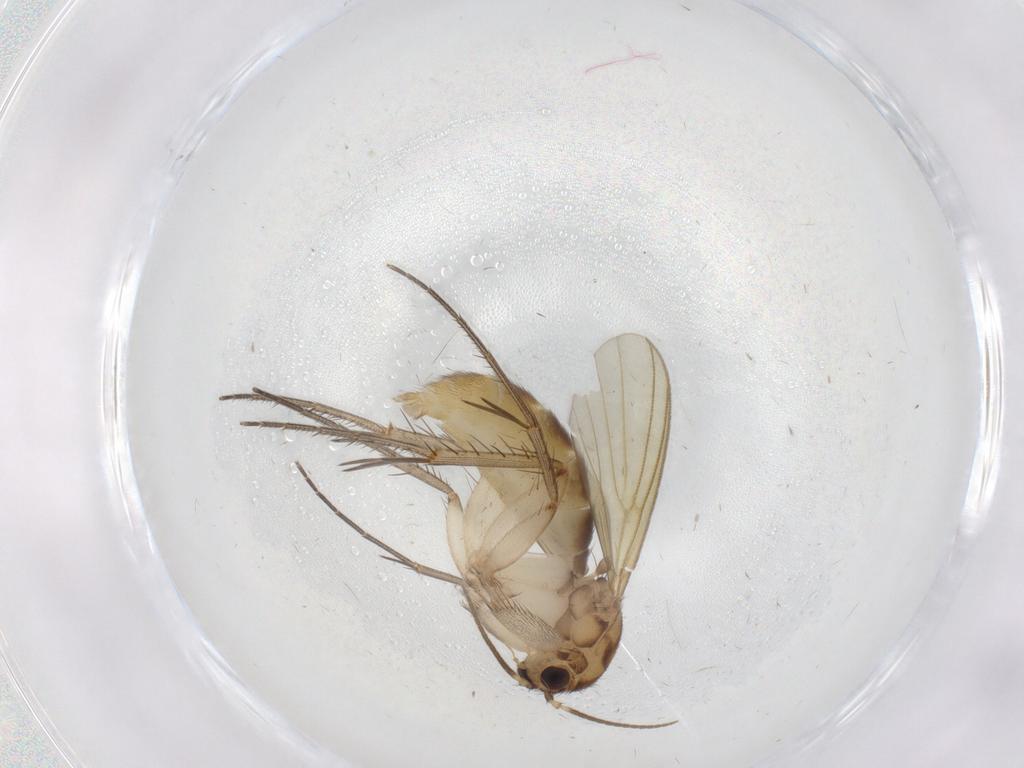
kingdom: Animalia
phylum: Arthropoda
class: Insecta
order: Diptera
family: Mycetophilidae
